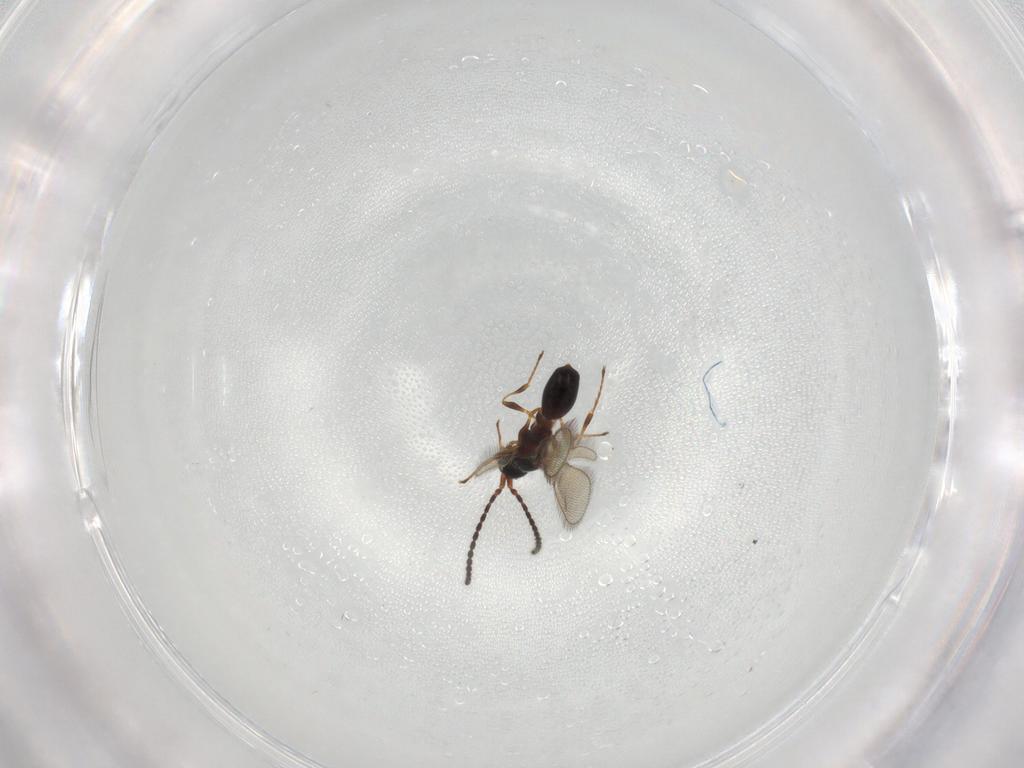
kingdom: Animalia
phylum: Arthropoda
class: Insecta
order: Hymenoptera
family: Diapriidae
